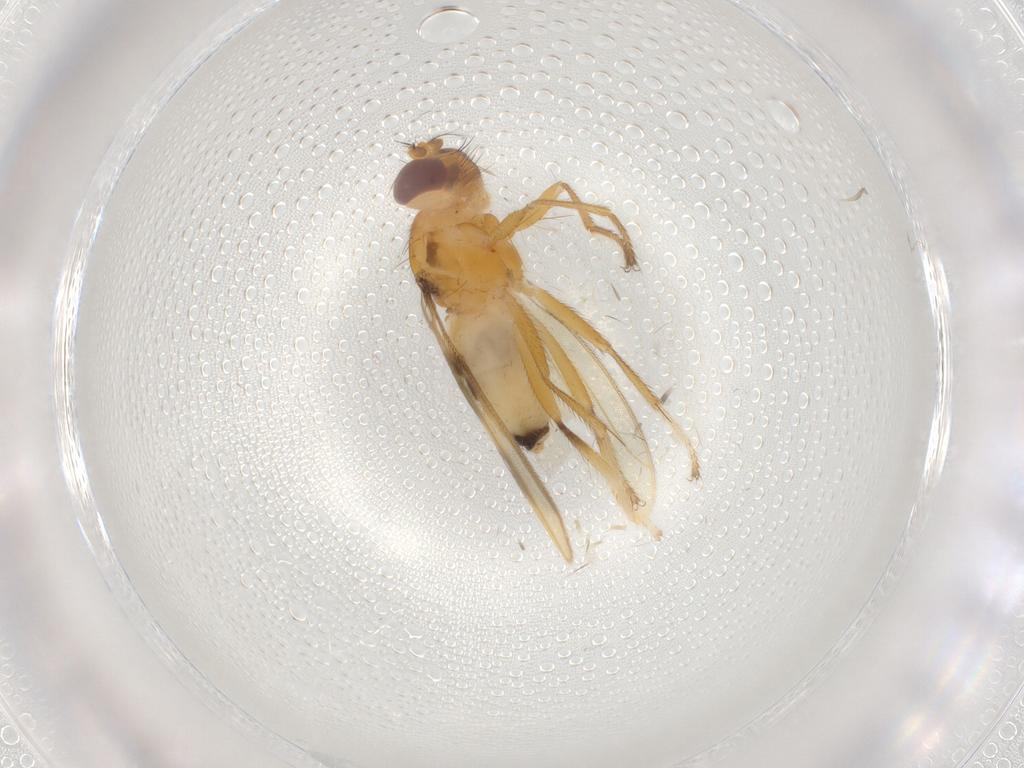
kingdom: Animalia
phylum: Arthropoda
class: Insecta
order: Diptera
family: Periscelididae
